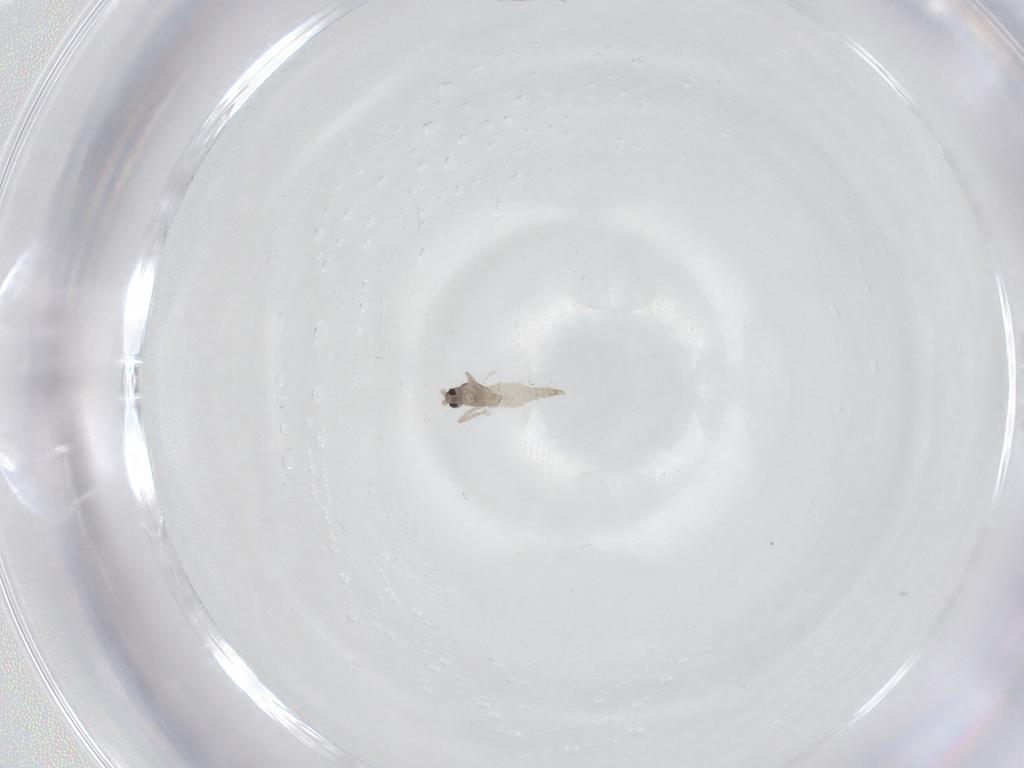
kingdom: Animalia
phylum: Arthropoda
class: Insecta
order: Diptera
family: Cecidomyiidae
